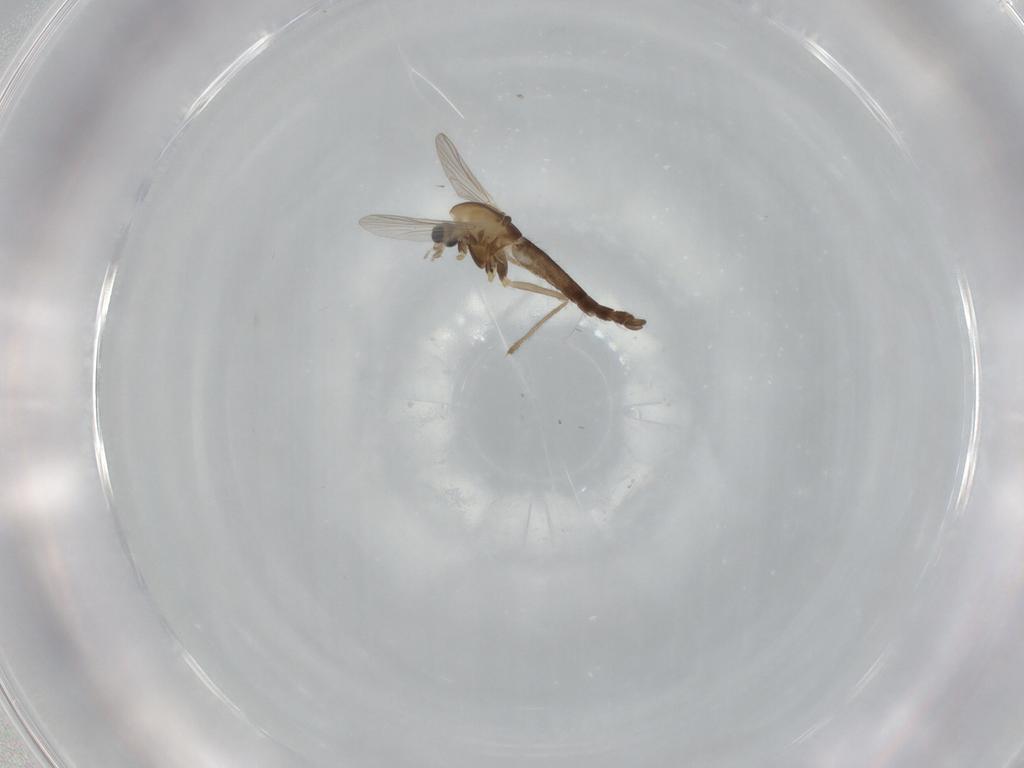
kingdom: Animalia
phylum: Arthropoda
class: Insecta
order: Diptera
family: Chironomidae
